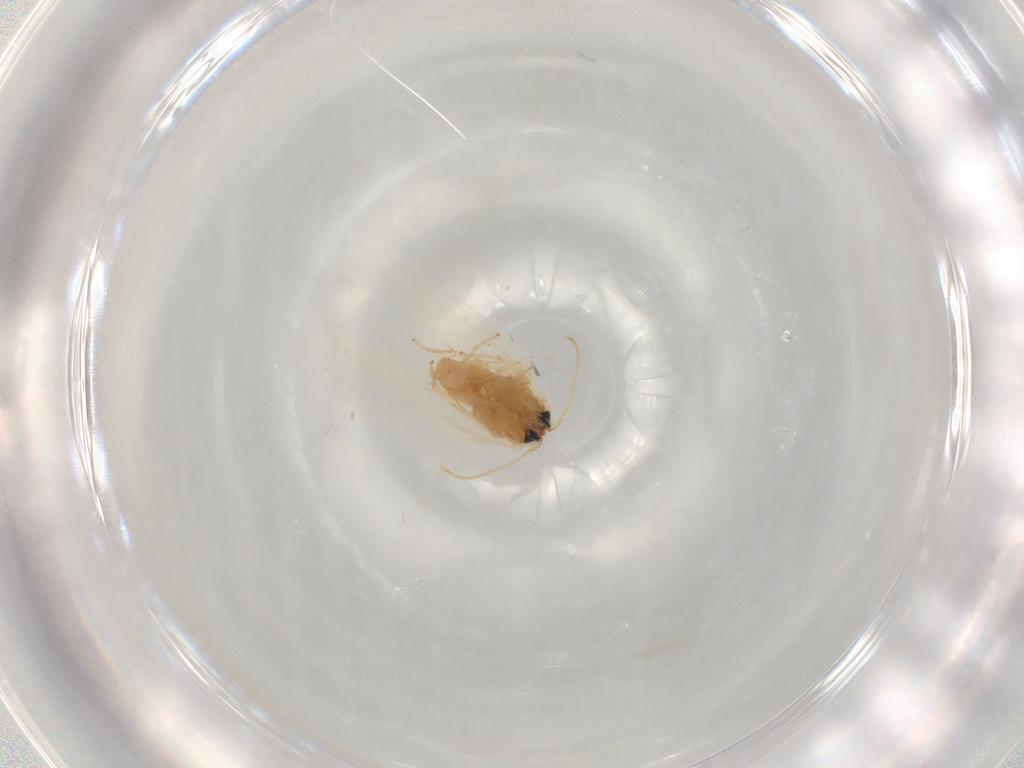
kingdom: Animalia
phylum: Arthropoda
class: Insecta
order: Lepidoptera
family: Nepticulidae
